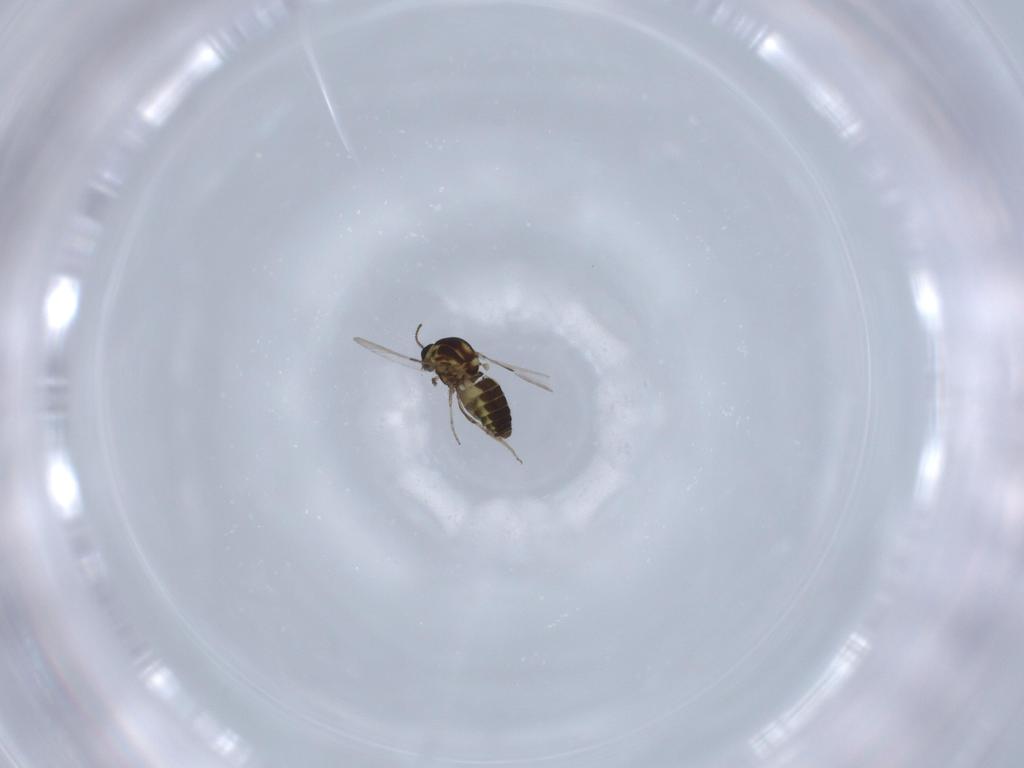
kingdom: Animalia
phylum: Arthropoda
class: Insecta
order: Diptera
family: Ceratopogonidae
